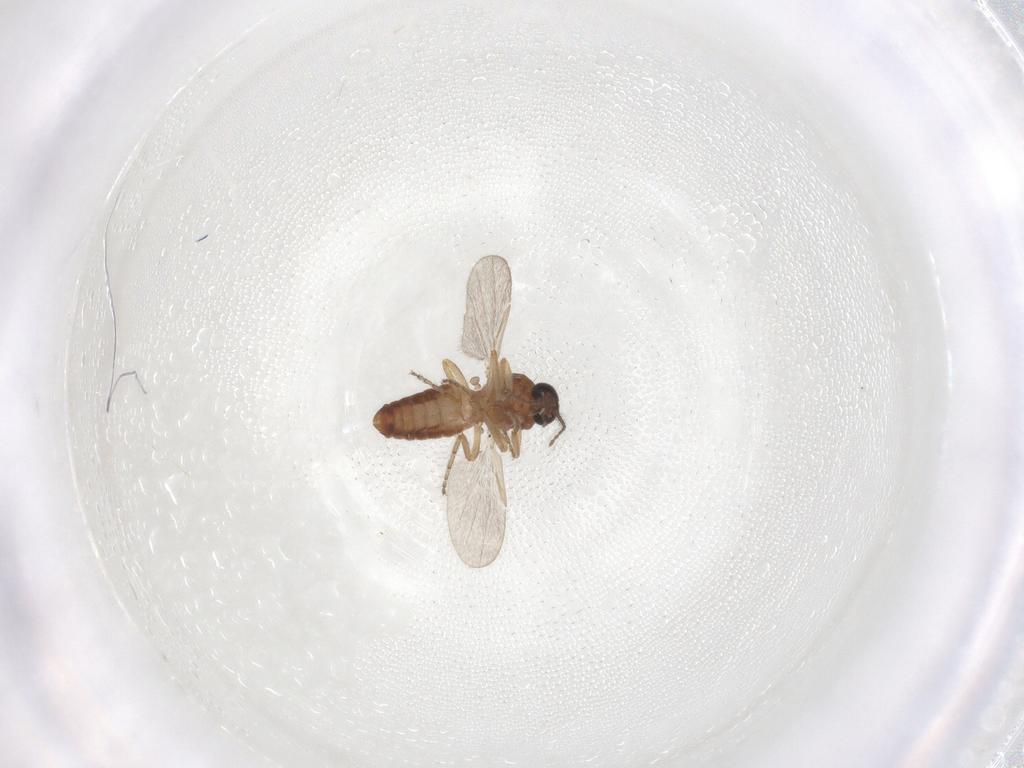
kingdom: Animalia
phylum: Arthropoda
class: Insecta
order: Diptera
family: Ceratopogonidae
